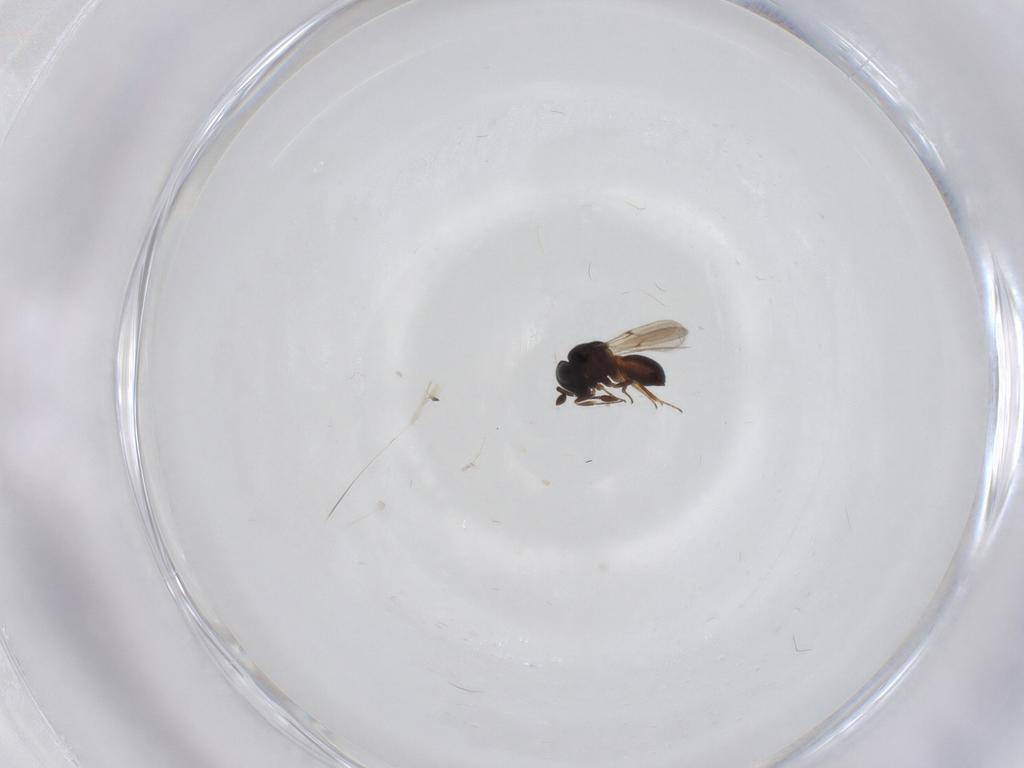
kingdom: Animalia
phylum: Arthropoda
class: Insecta
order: Hymenoptera
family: Scelionidae
